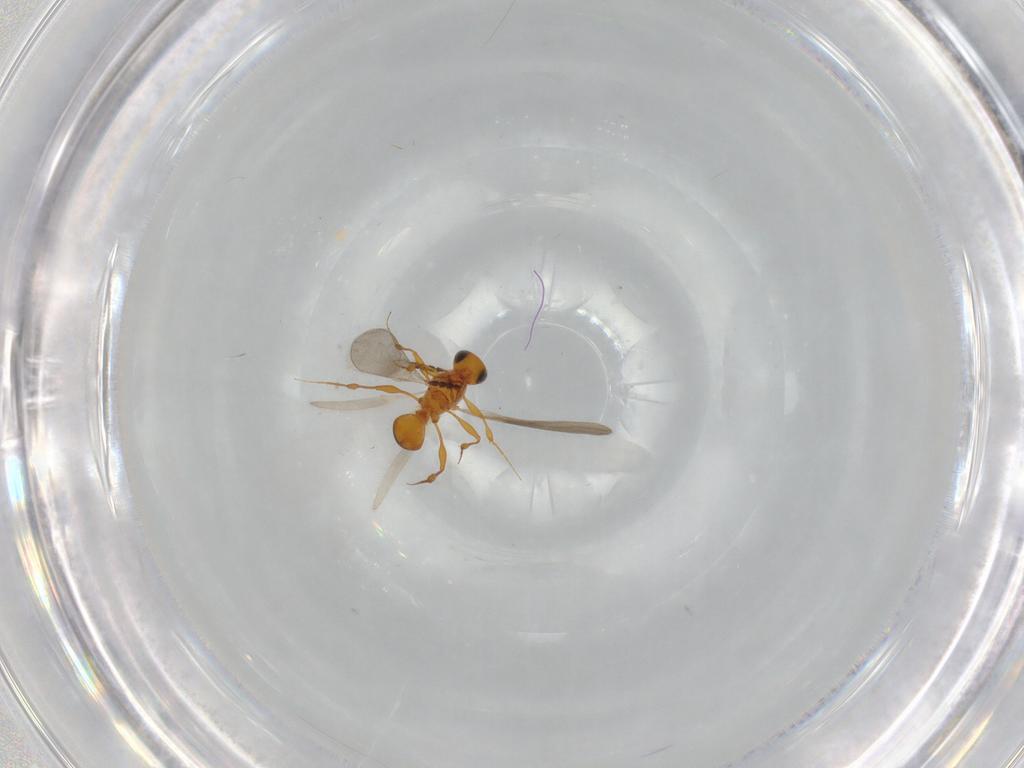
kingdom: Animalia
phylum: Arthropoda
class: Insecta
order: Hymenoptera
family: Platygastridae
